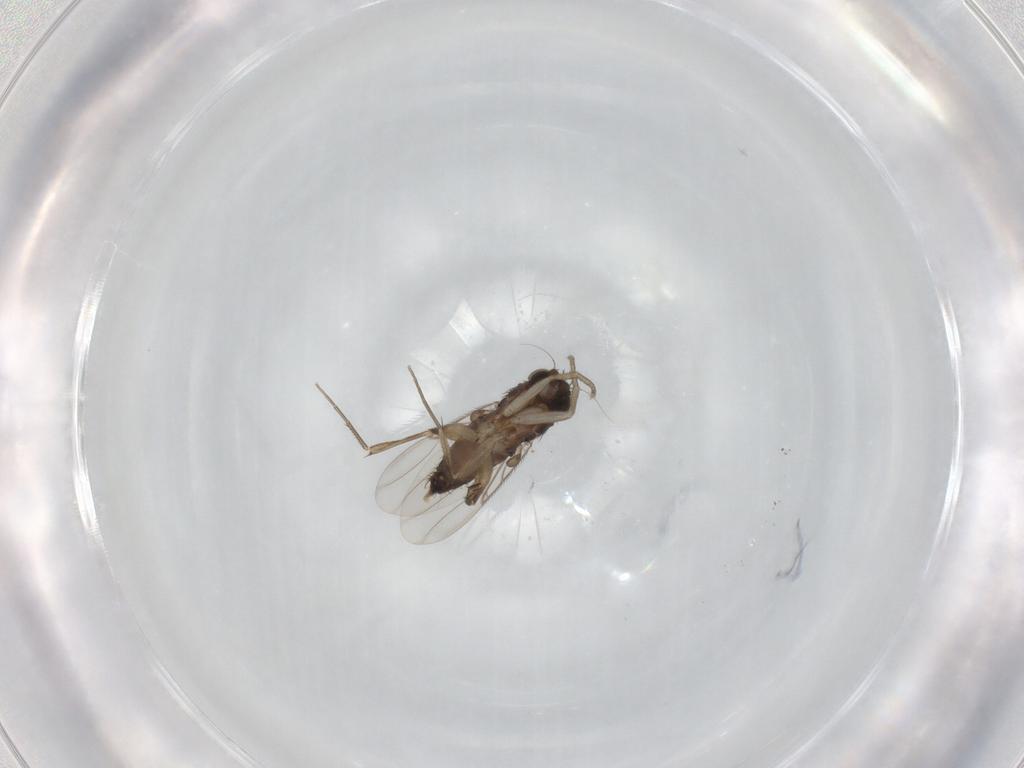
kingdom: Animalia
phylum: Arthropoda
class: Insecta
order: Diptera
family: Phoridae
